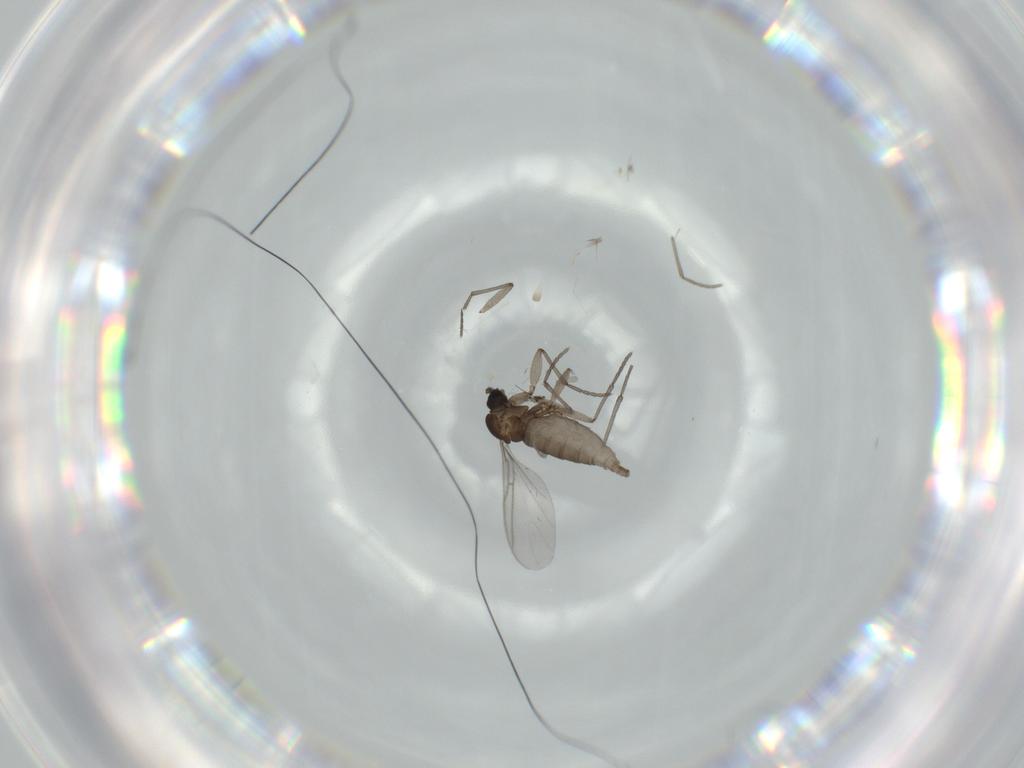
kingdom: Animalia
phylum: Arthropoda
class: Insecta
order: Diptera
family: Sciaridae
